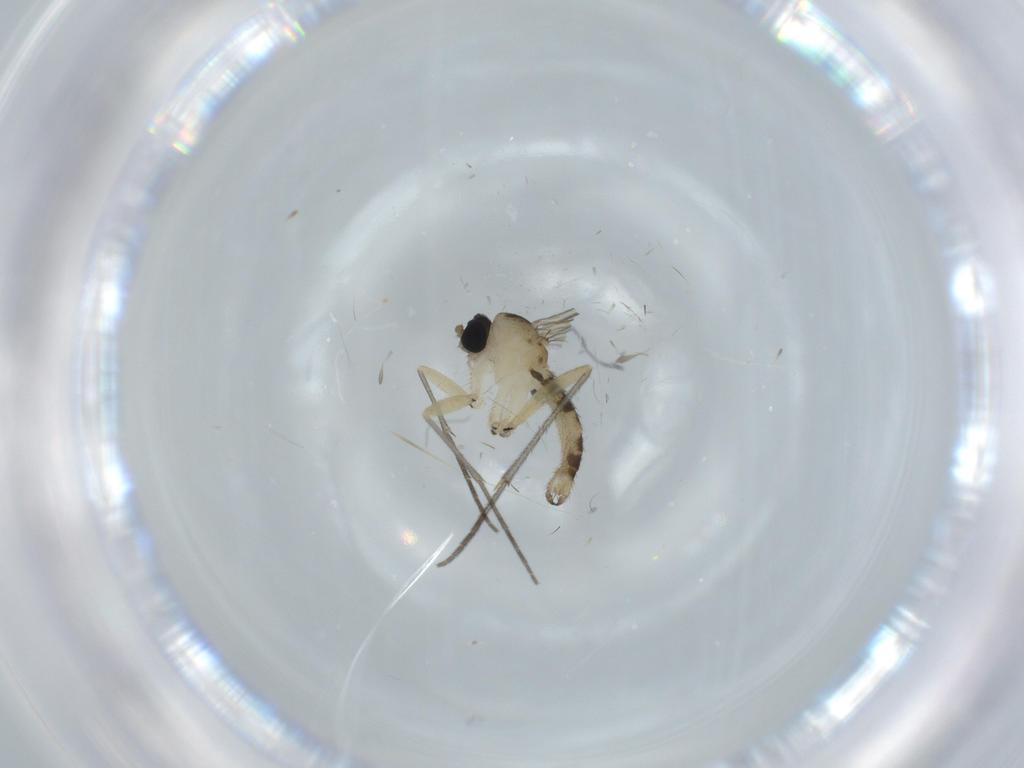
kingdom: Animalia
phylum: Arthropoda
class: Insecta
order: Diptera
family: Sciaridae
